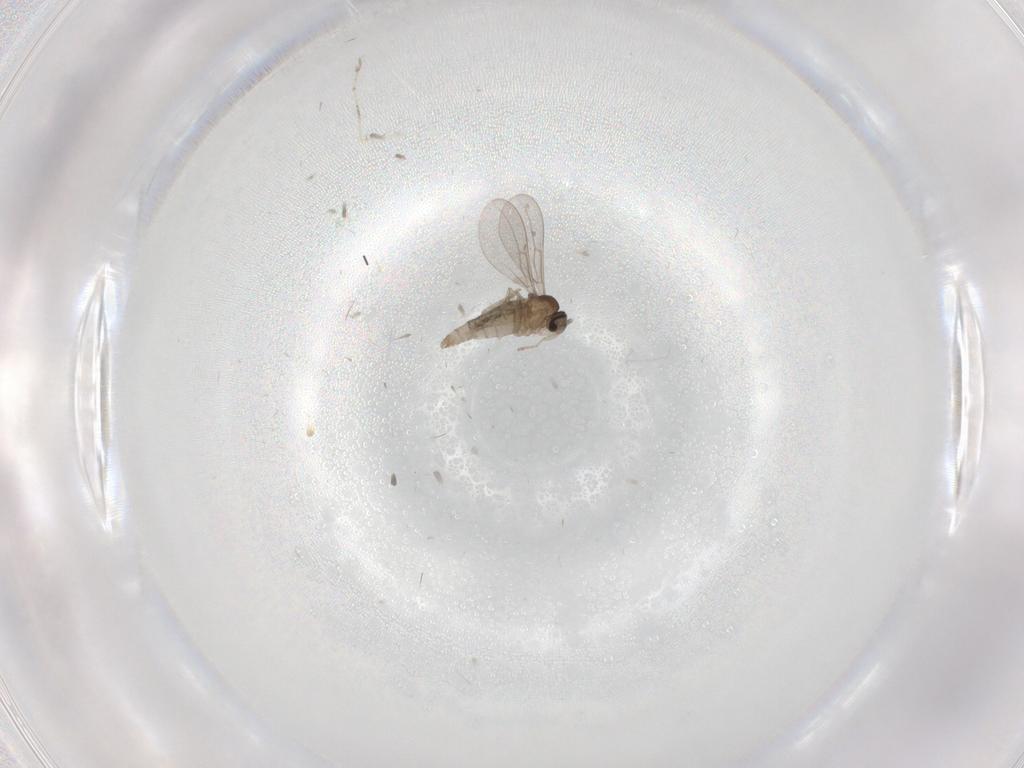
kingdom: Animalia
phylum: Arthropoda
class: Insecta
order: Diptera
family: Cecidomyiidae
